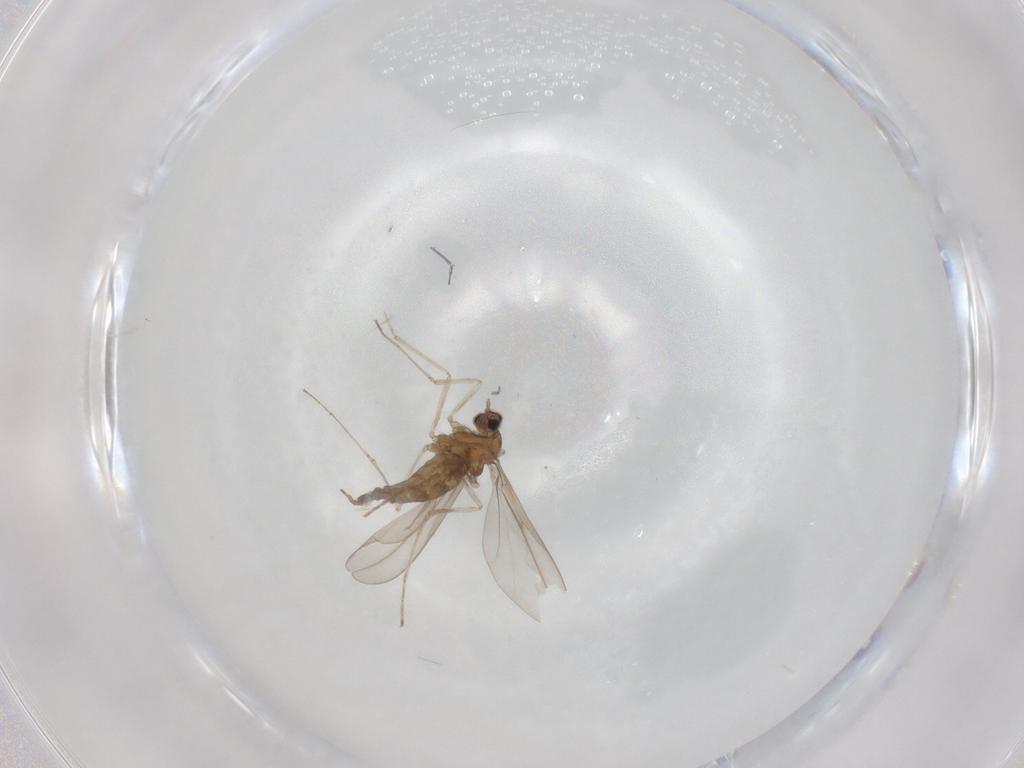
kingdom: Animalia
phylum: Arthropoda
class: Insecta
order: Diptera
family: Cecidomyiidae
